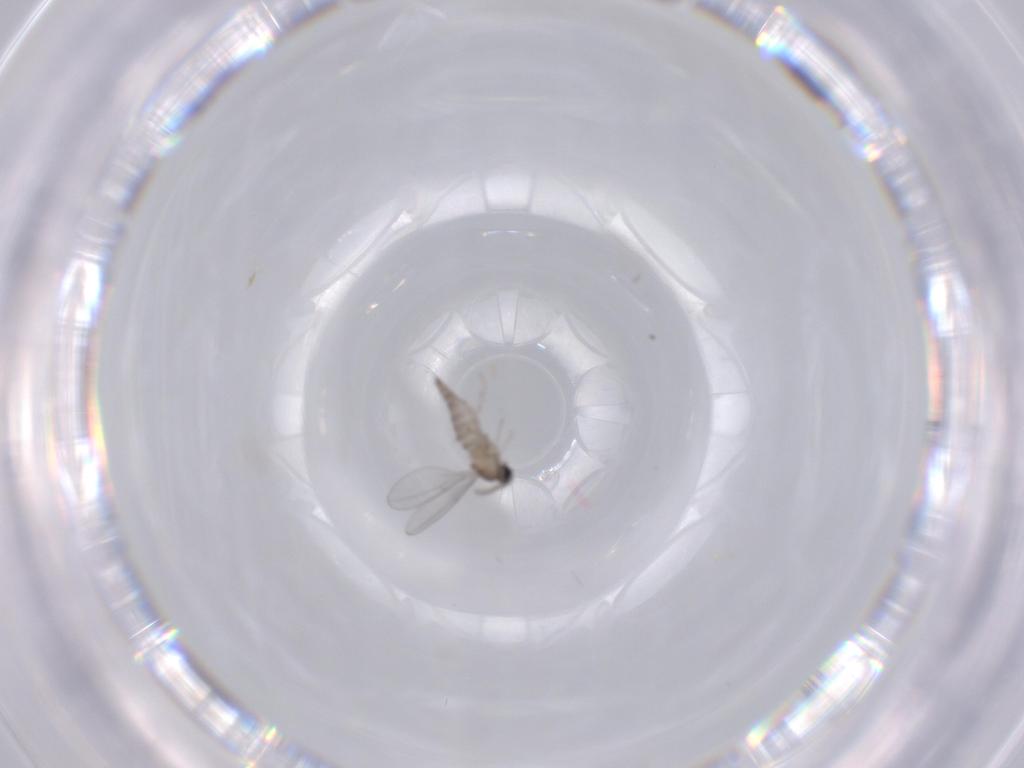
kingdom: Animalia
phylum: Arthropoda
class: Insecta
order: Diptera
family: Cecidomyiidae
